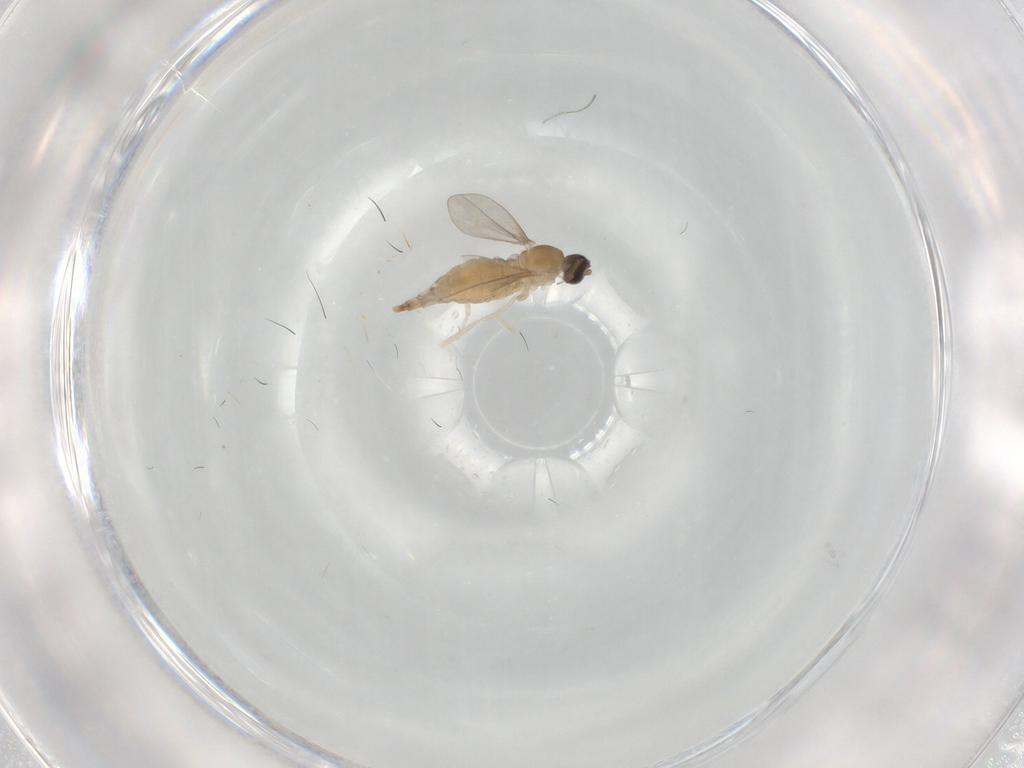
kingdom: Animalia
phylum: Arthropoda
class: Insecta
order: Diptera
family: Cecidomyiidae
